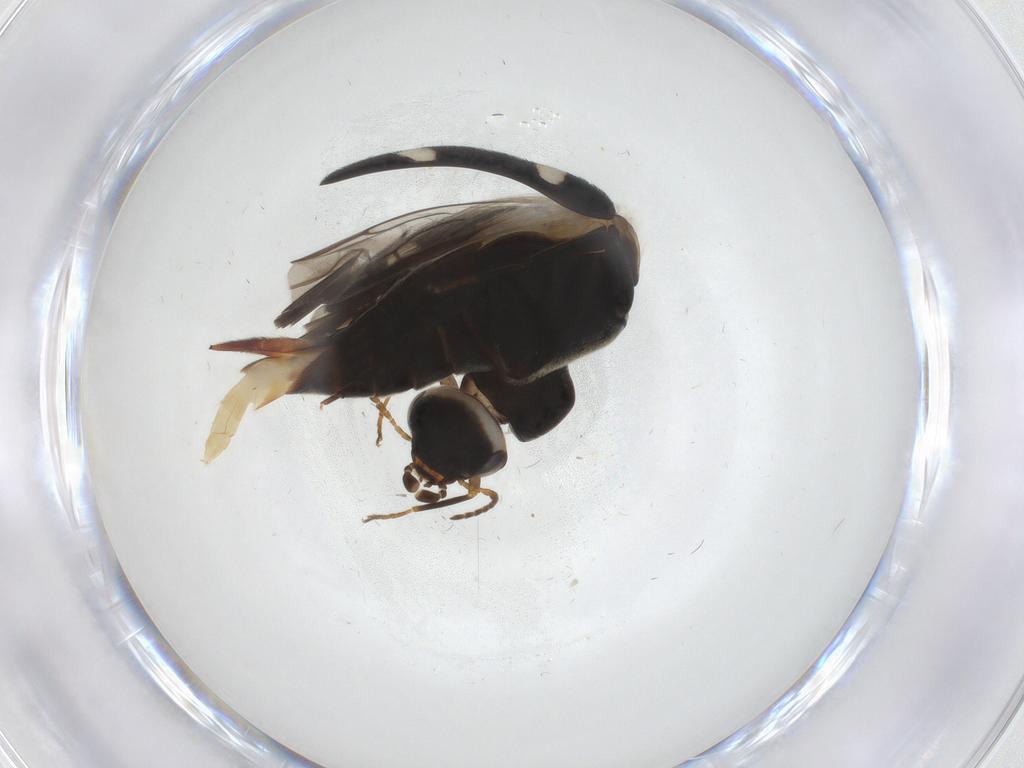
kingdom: Animalia
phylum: Arthropoda
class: Insecta
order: Coleoptera
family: Mordellidae
